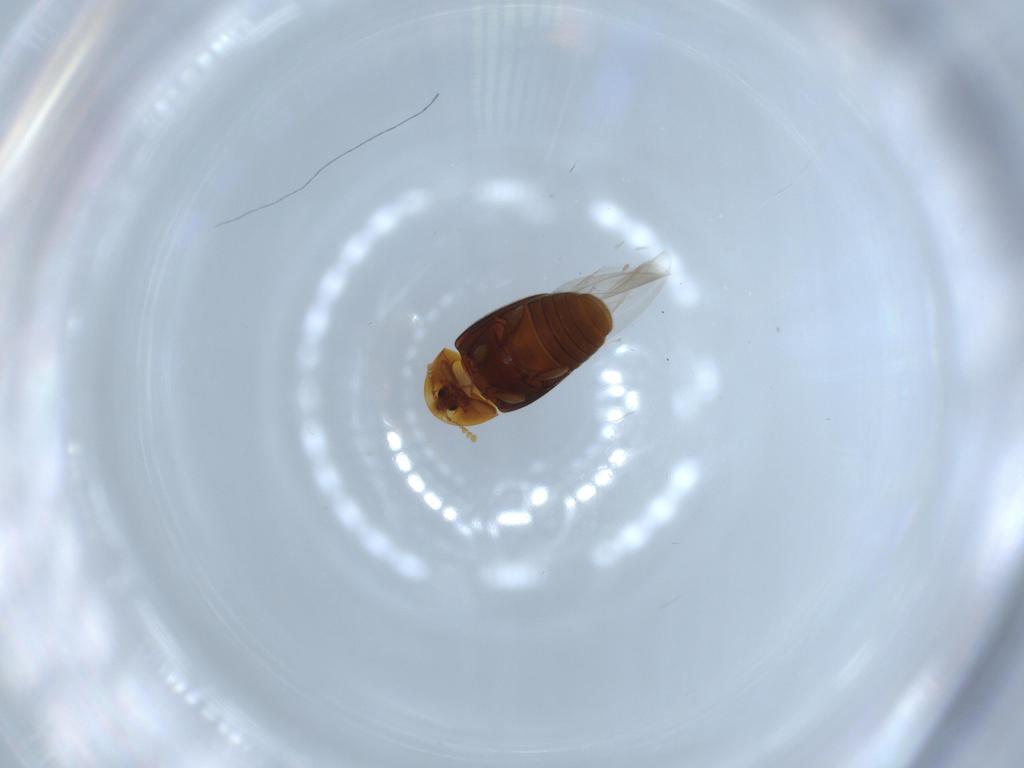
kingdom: Animalia
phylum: Arthropoda
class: Insecta
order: Coleoptera
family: Corylophidae
